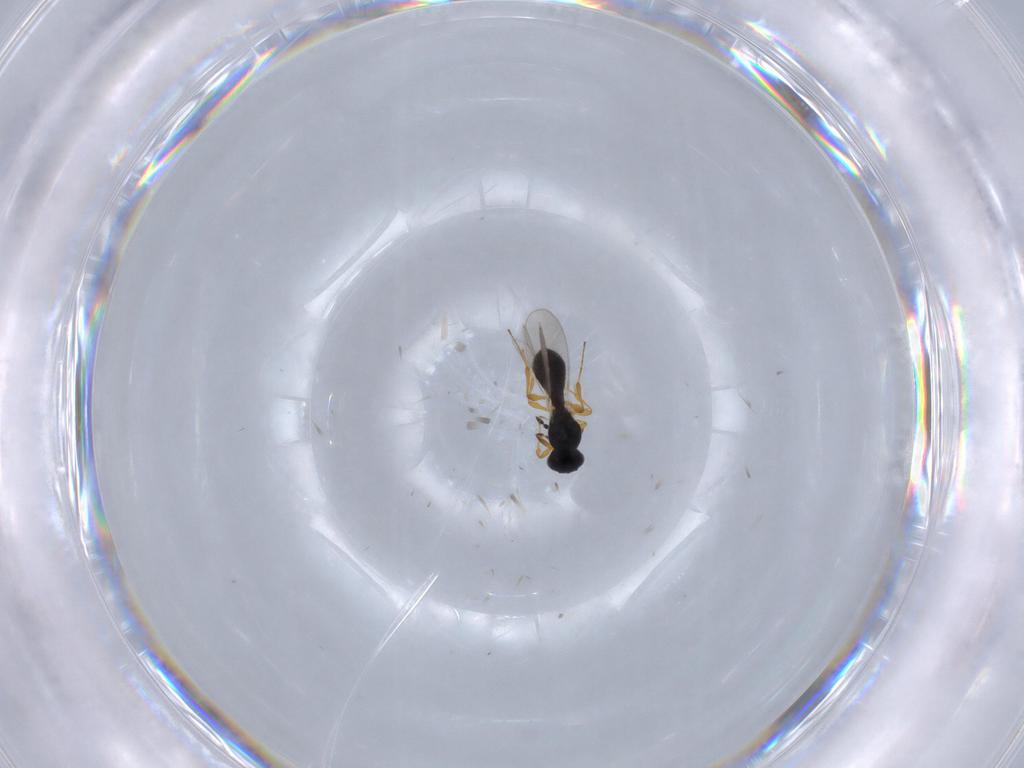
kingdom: Animalia
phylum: Arthropoda
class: Insecta
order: Hymenoptera
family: Platygastridae
